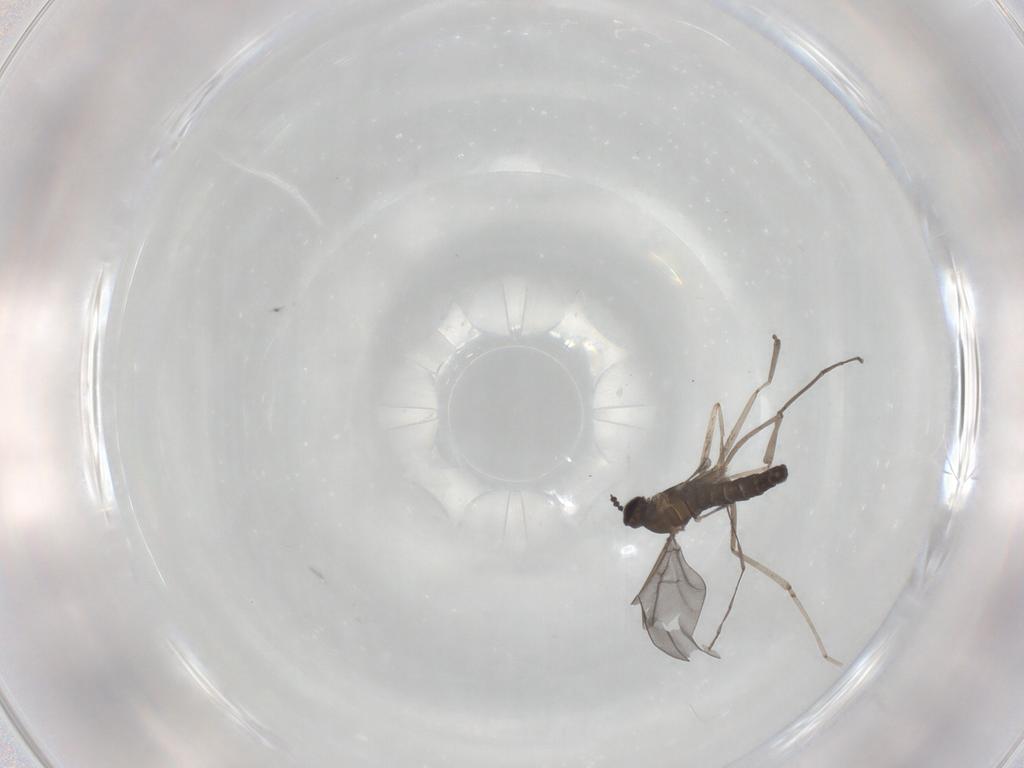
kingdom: Animalia
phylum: Arthropoda
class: Insecta
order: Diptera
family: Cecidomyiidae
